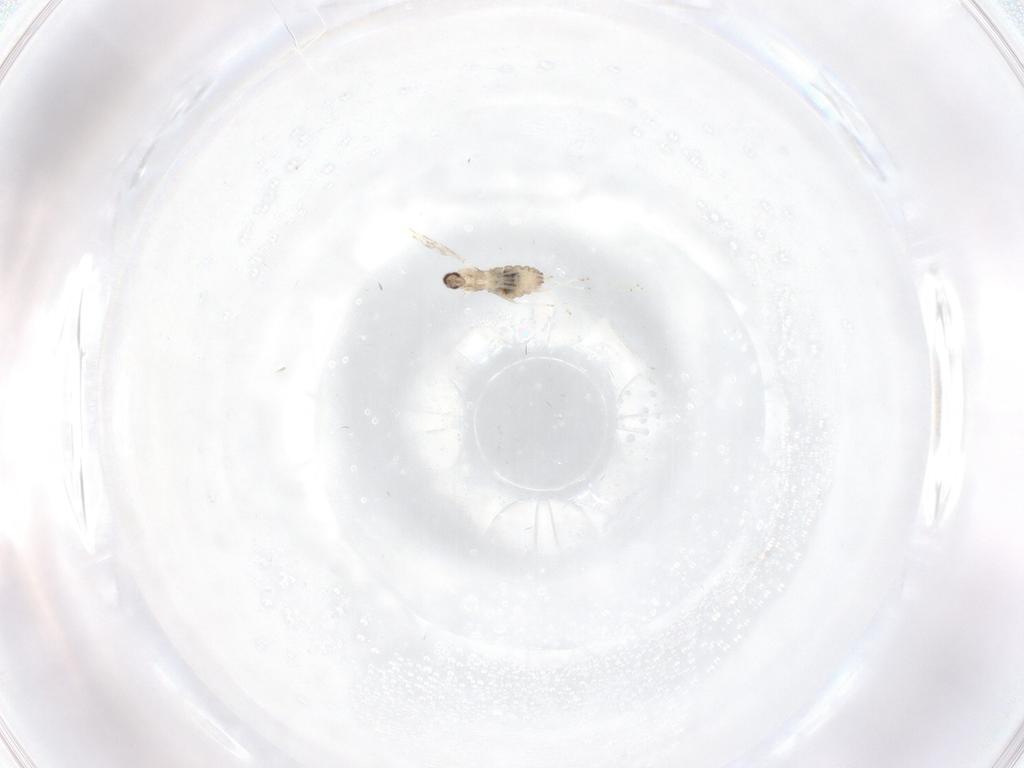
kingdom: Animalia
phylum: Arthropoda
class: Insecta
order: Diptera
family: Cecidomyiidae
